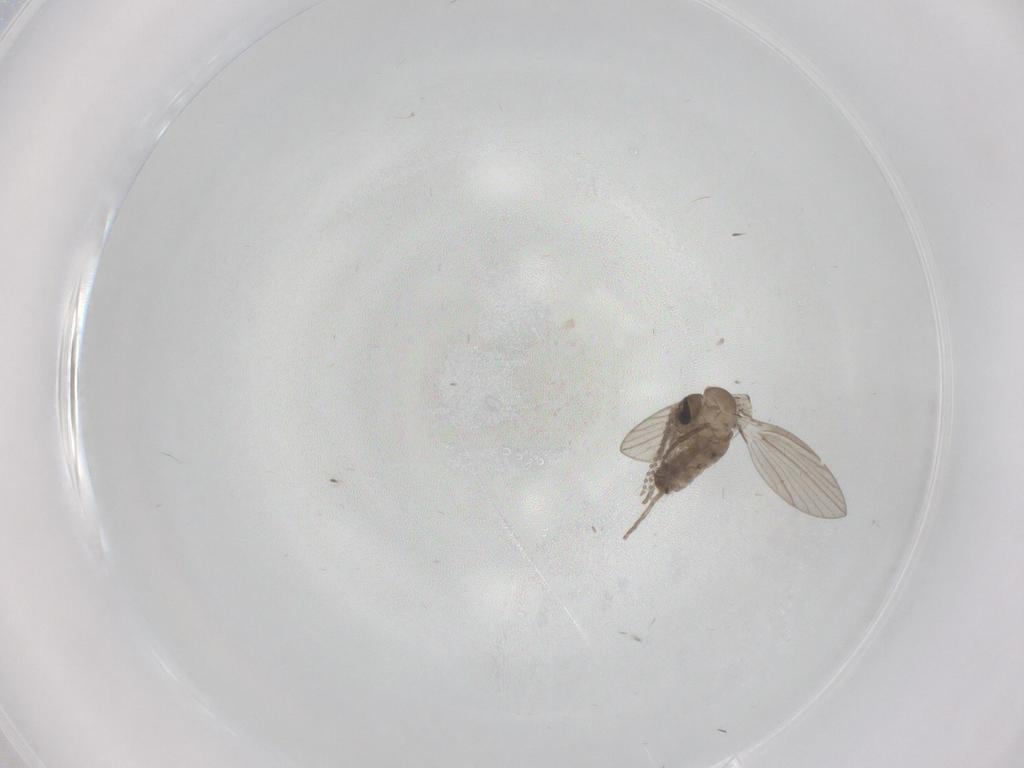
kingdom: Animalia
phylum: Arthropoda
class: Insecta
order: Diptera
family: Psychodidae
